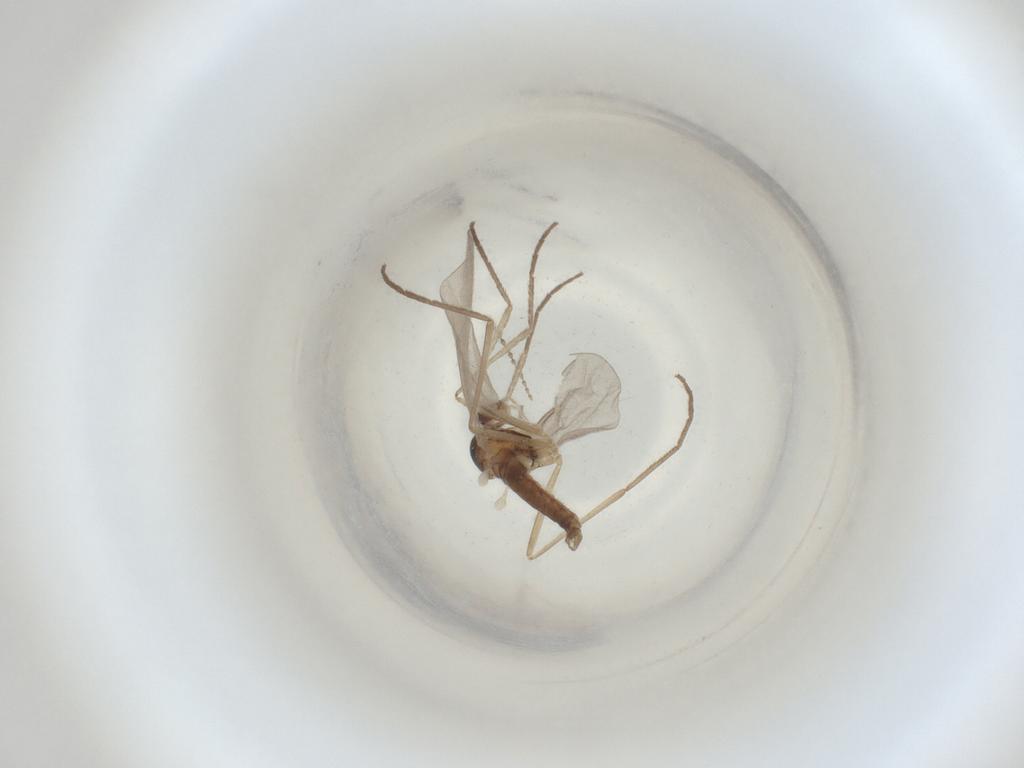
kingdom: Animalia
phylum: Arthropoda
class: Insecta
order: Diptera
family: Cecidomyiidae
